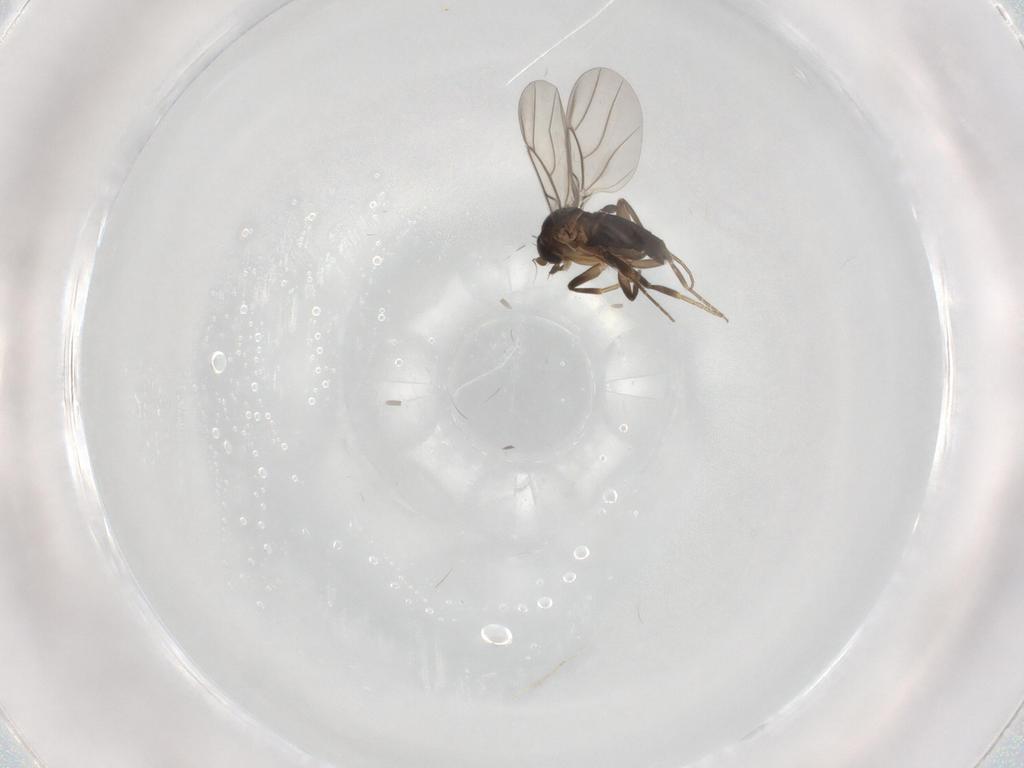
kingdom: Animalia
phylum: Arthropoda
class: Insecta
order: Diptera
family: Phoridae
